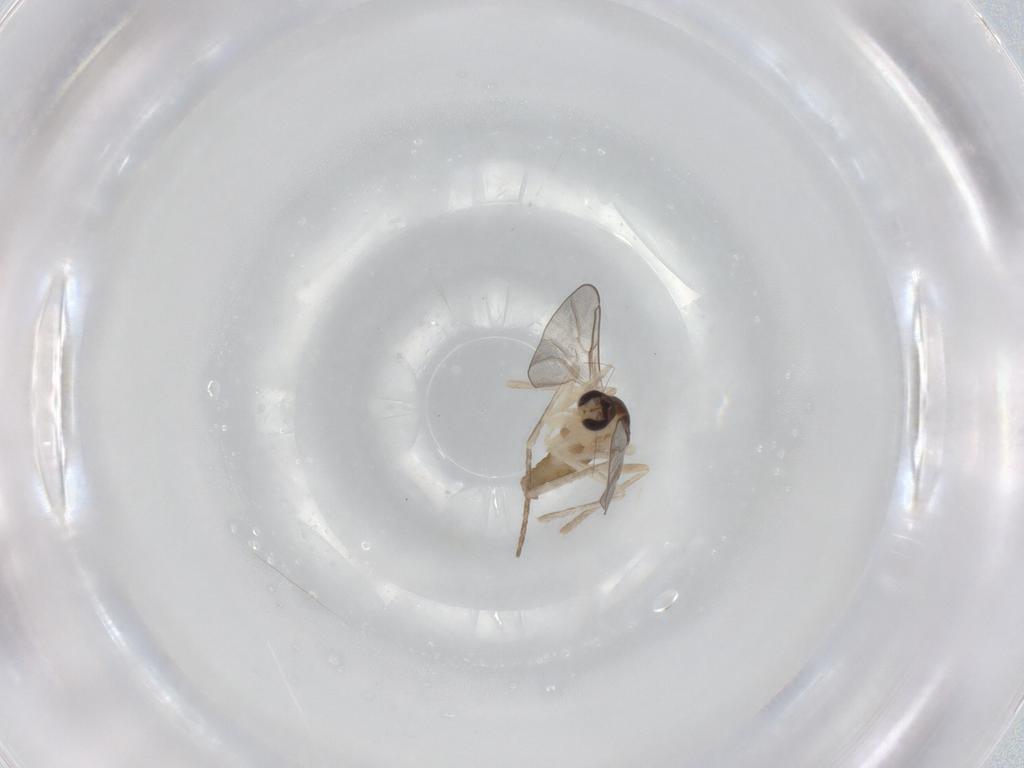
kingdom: Animalia
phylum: Arthropoda
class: Insecta
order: Diptera
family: Cecidomyiidae
